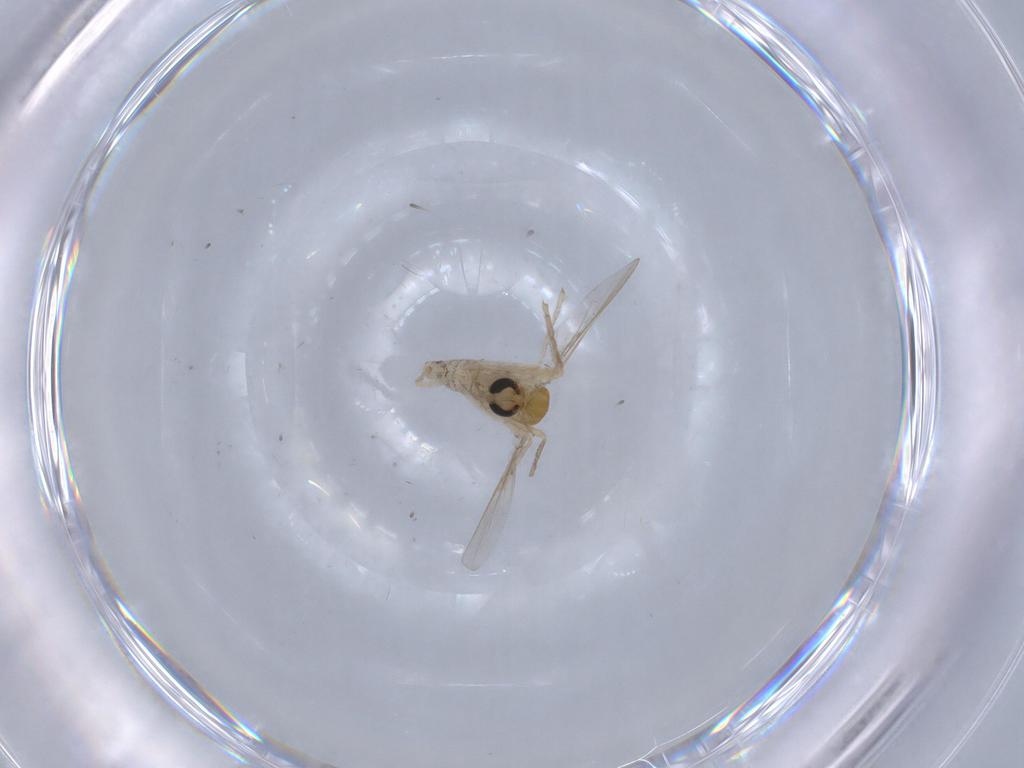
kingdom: Animalia
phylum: Arthropoda
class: Insecta
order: Diptera
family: Chironomidae
